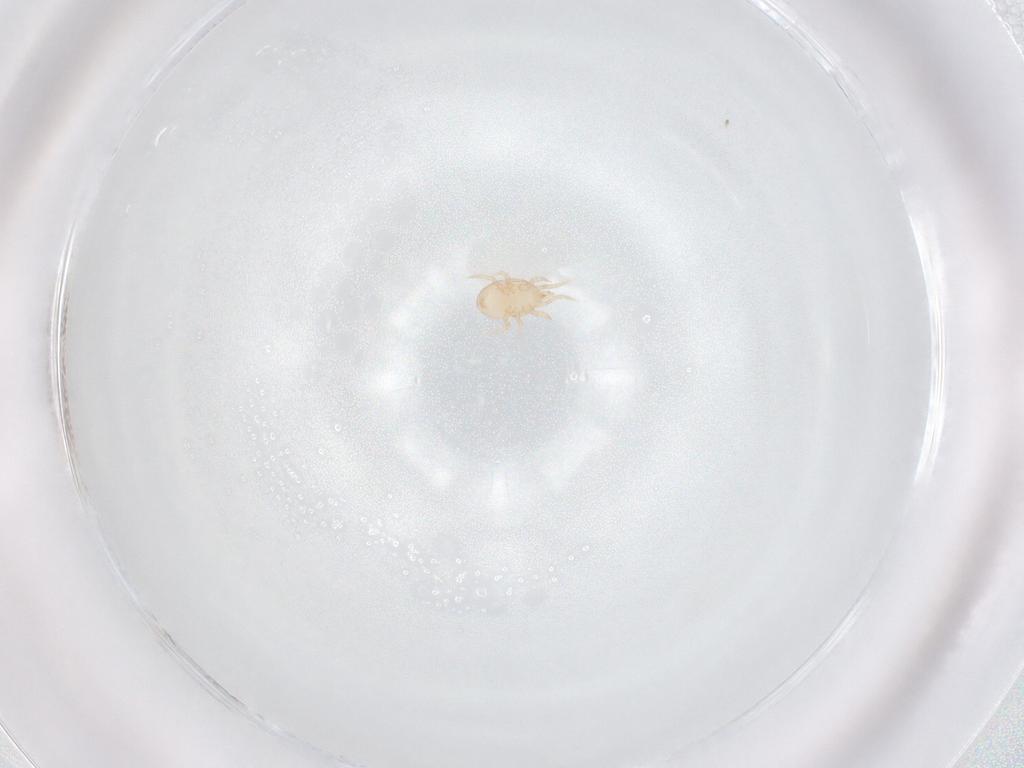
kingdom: Animalia
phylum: Arthropoda
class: Arachnida
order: Mesostigmata
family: Melicharidae
